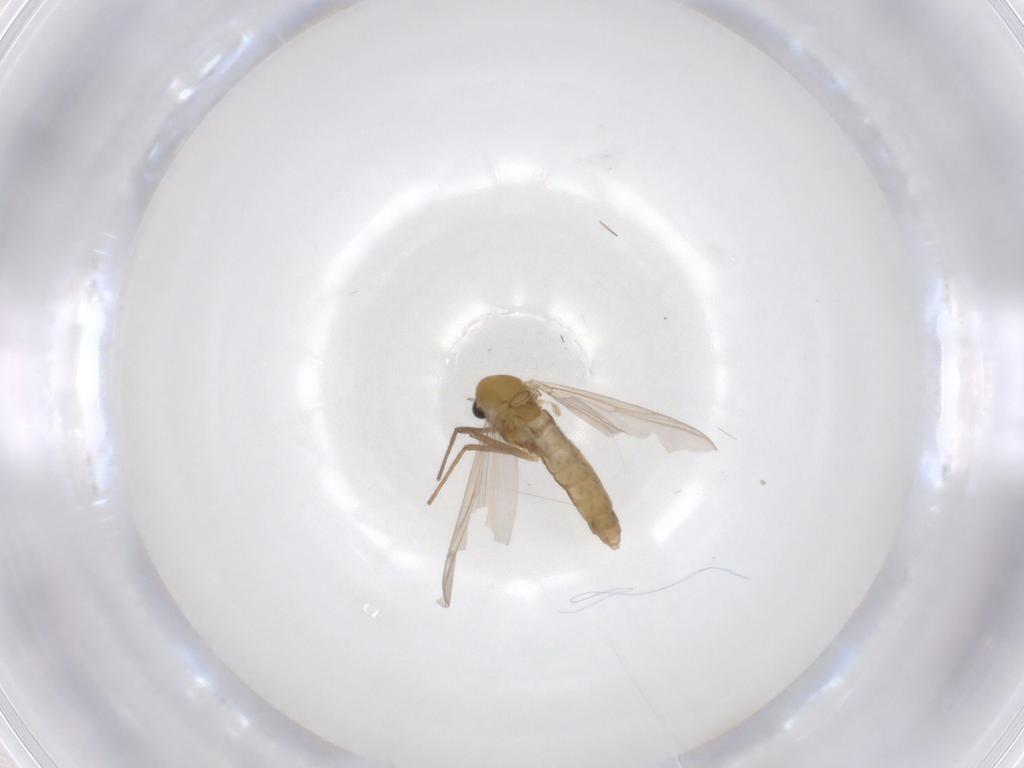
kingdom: Animalia
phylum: Arthropoda
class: Insecta
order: Diptera
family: Chironomidae
